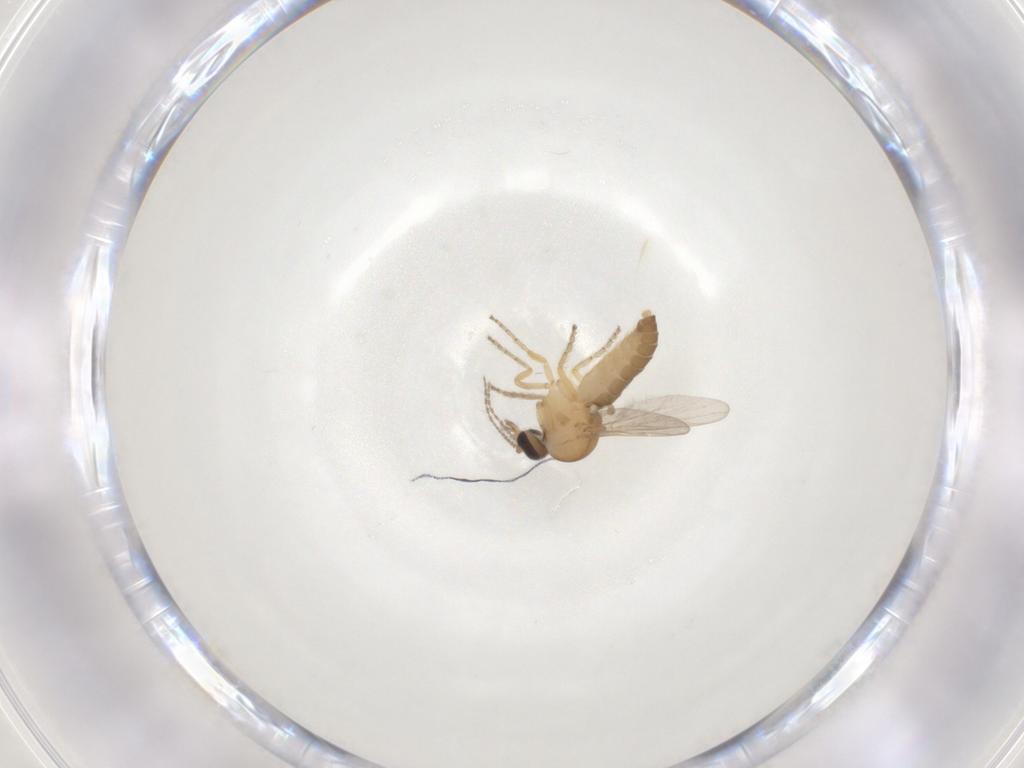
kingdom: Animalia
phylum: Arthropoda
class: Insecta
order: Diptera
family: Ceratopogonidae
